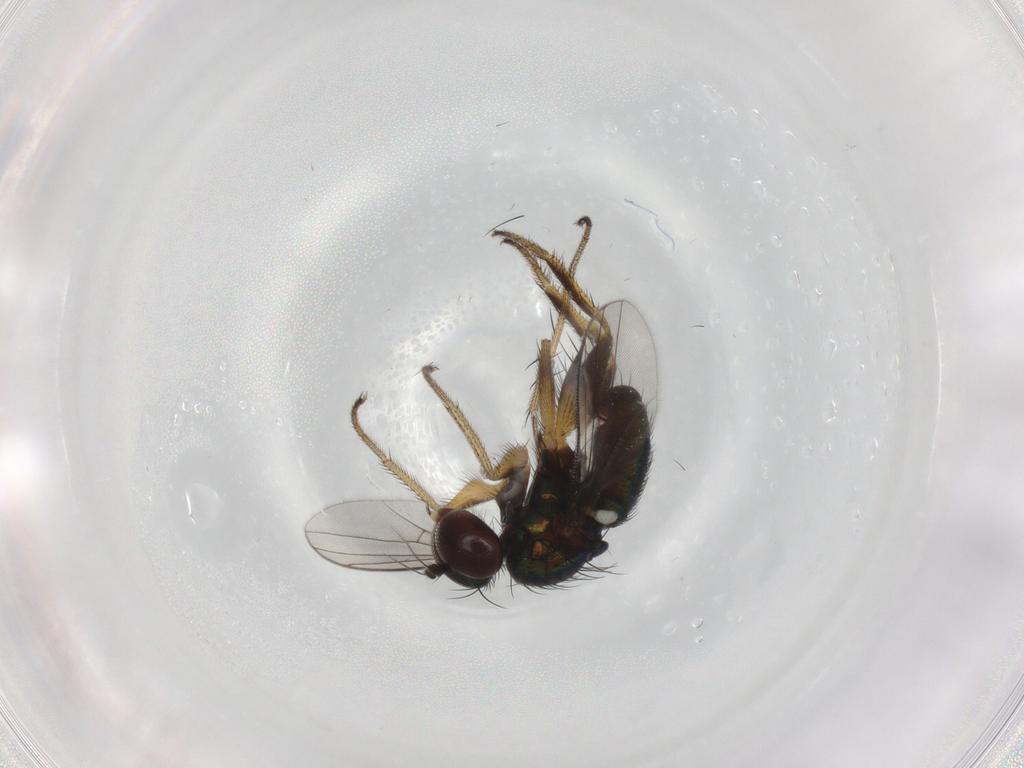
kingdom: Animalia
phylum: Arthropoda
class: Insecta
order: Diptera
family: Dolichopodidae
